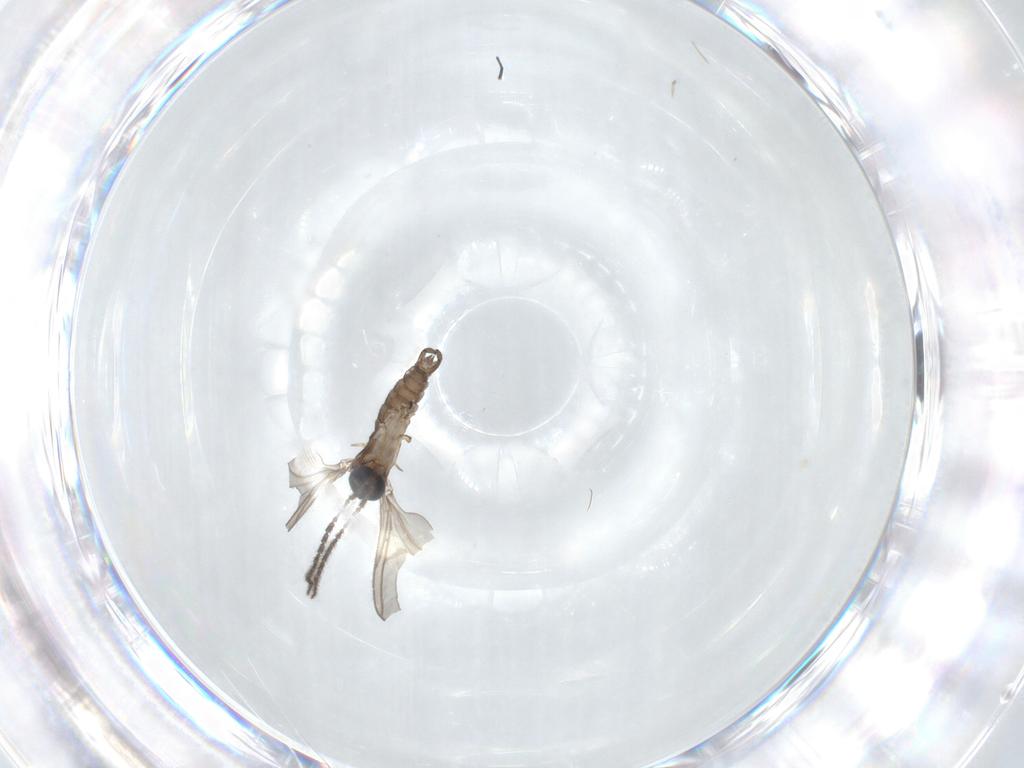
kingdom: Animalia
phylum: Arthropoda
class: Insecta
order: Diptera
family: Sciaridae
